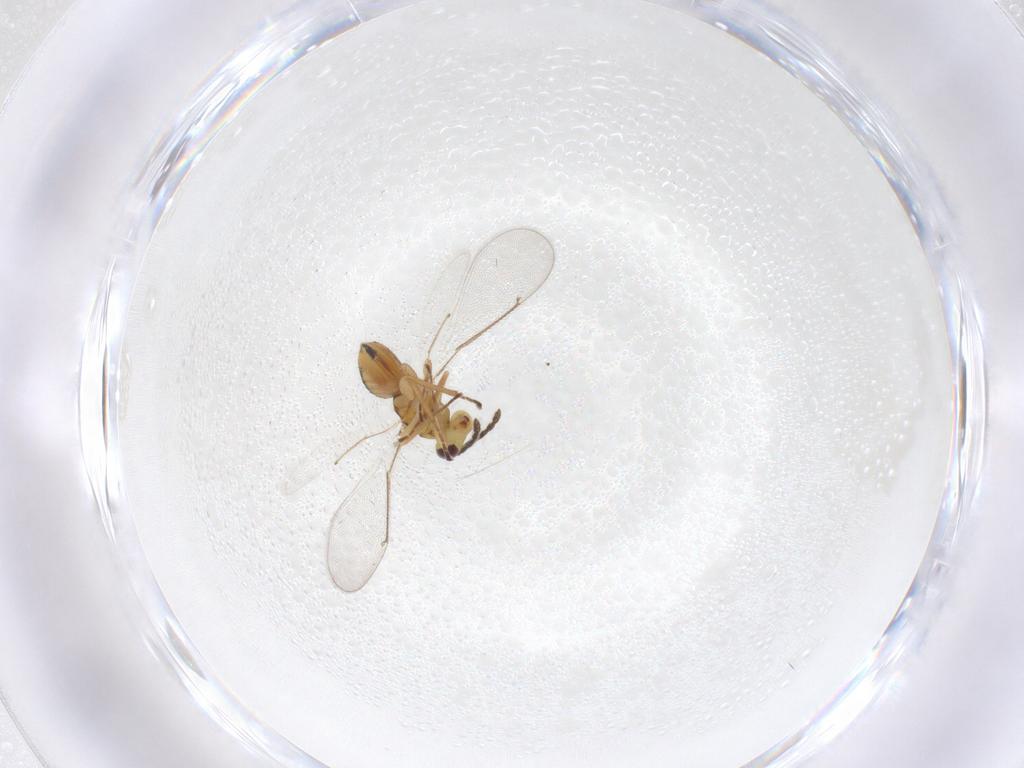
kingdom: Animalia
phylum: Arthropoda
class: Insecta
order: Hymenoptera
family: Eulophidae
